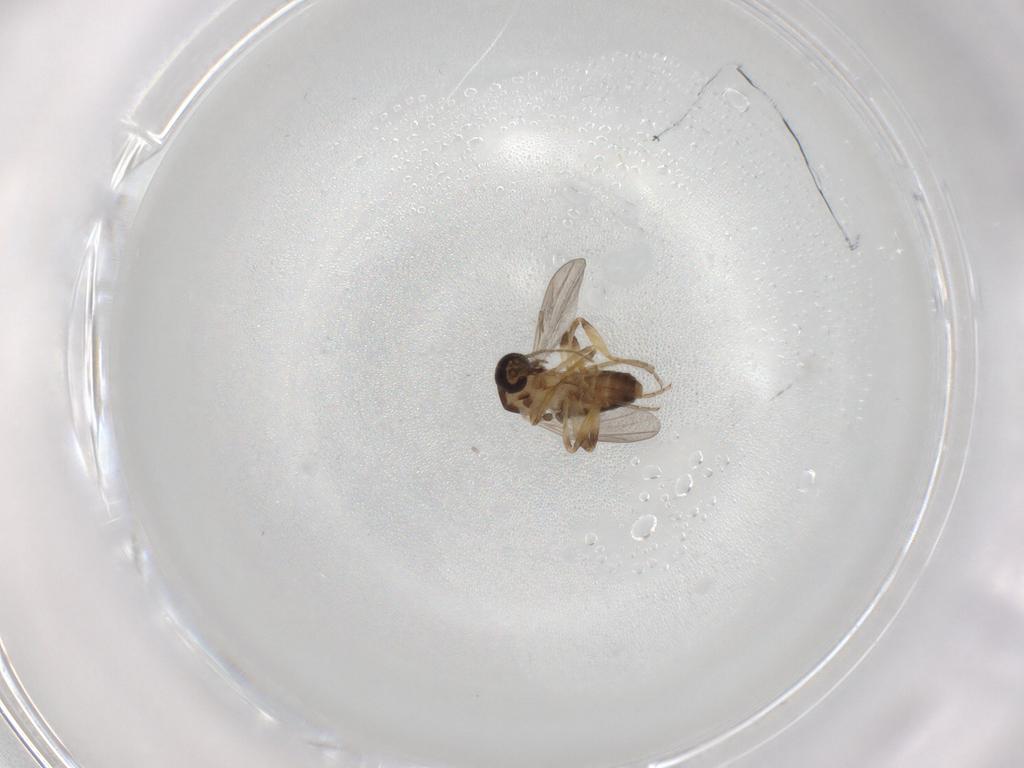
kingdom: Animalia
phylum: Arthropoda
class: Insecta
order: Diptera
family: Ceratopogonidae
